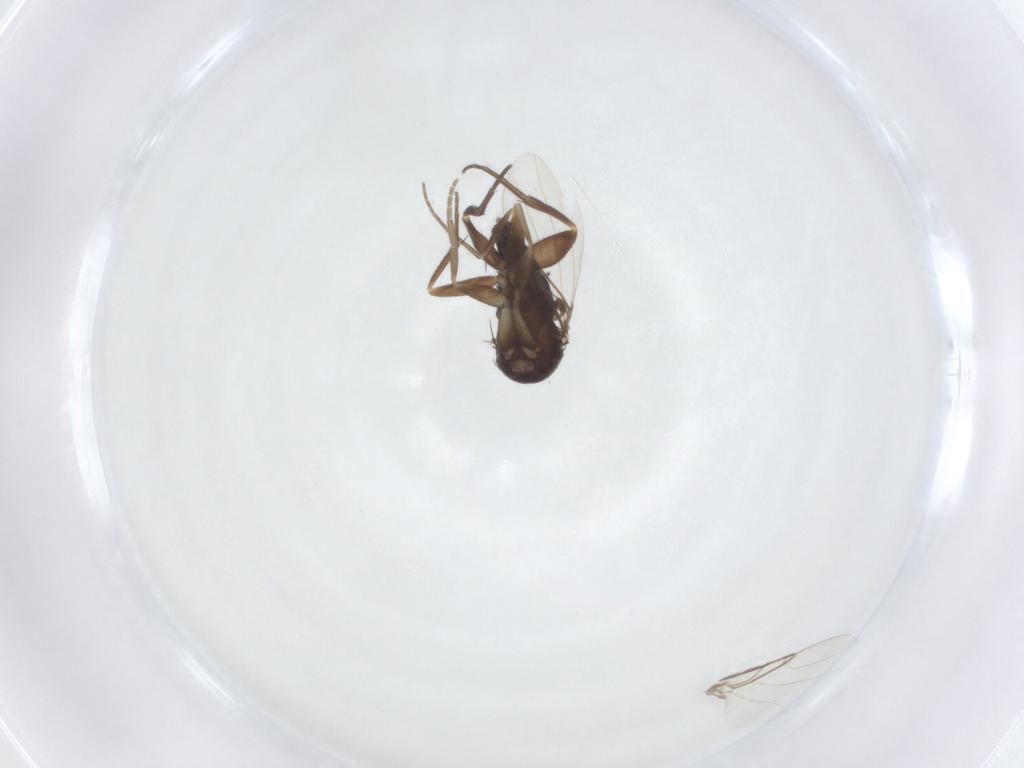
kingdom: Animalia
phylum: Arthropoda
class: Insecta
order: Diptera
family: Phoridae
